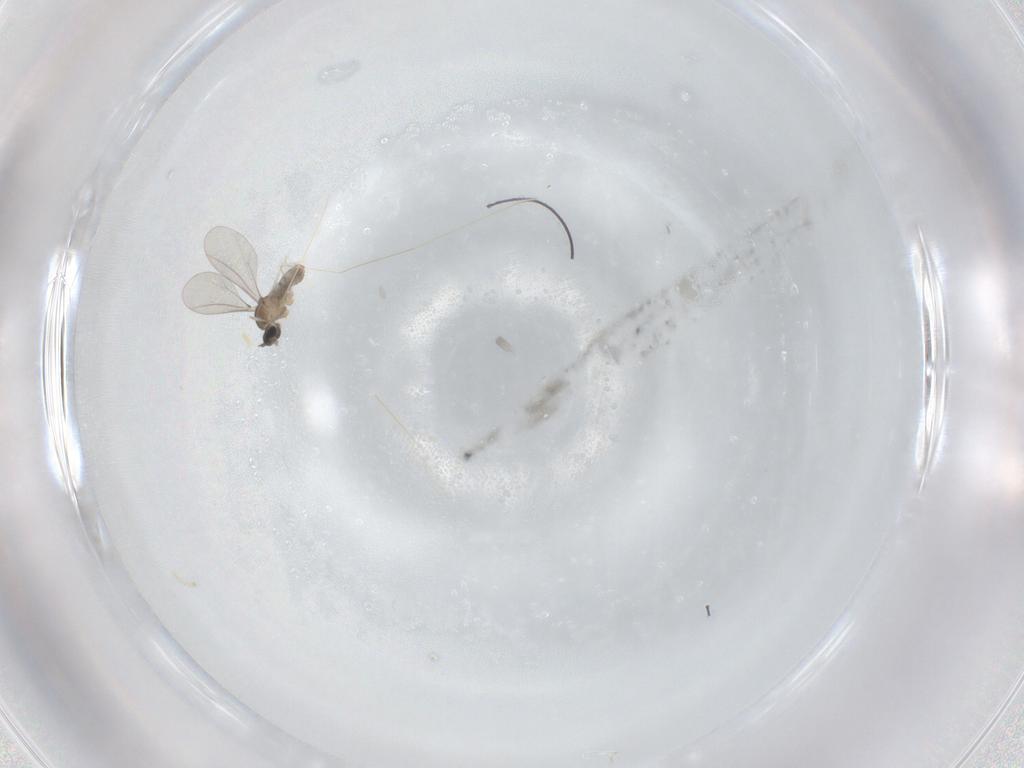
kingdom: Animalia
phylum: Arthropoda
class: Insecta
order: Diptera
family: Cecidomyiidae
